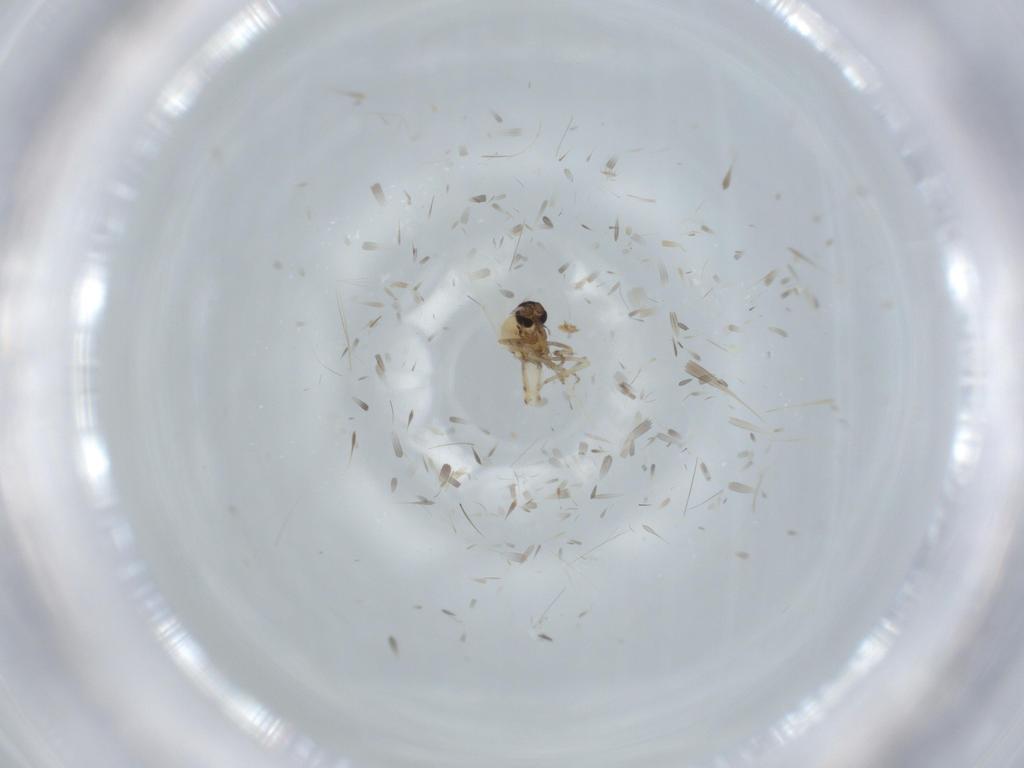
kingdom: Animalia
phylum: Arthropoda
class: Insecta
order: Diptera
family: Ceratopogonidae
